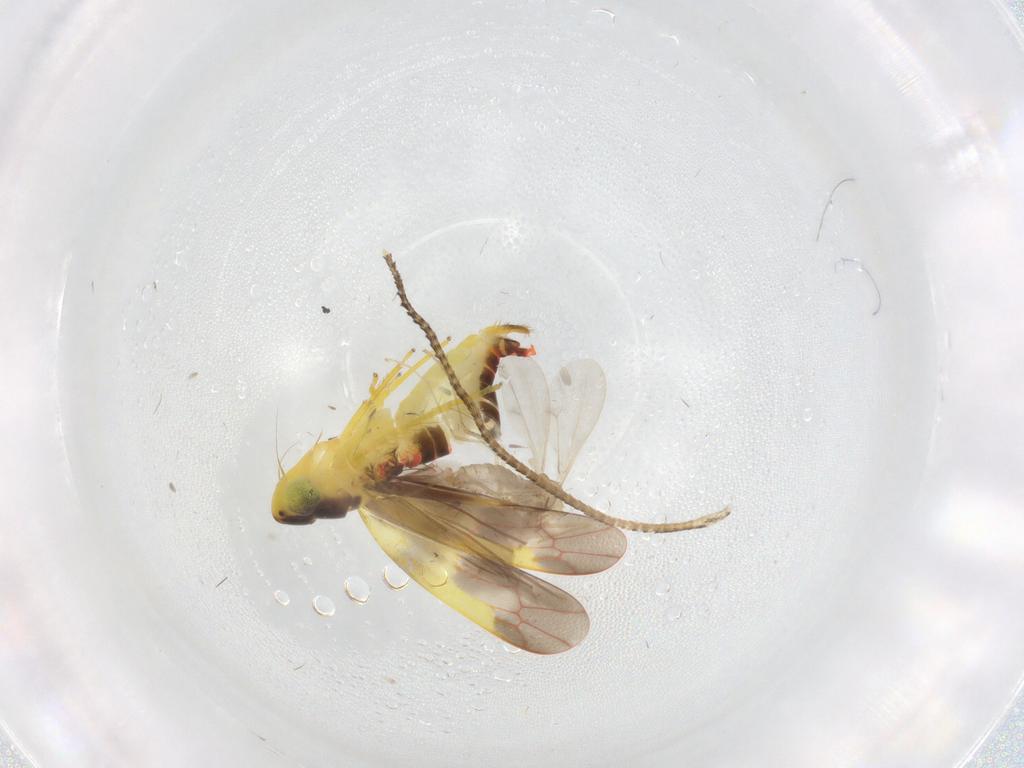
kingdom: Animalia
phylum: Arthropoda
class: Insecta
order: Hemiptera
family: Cicadellidae
